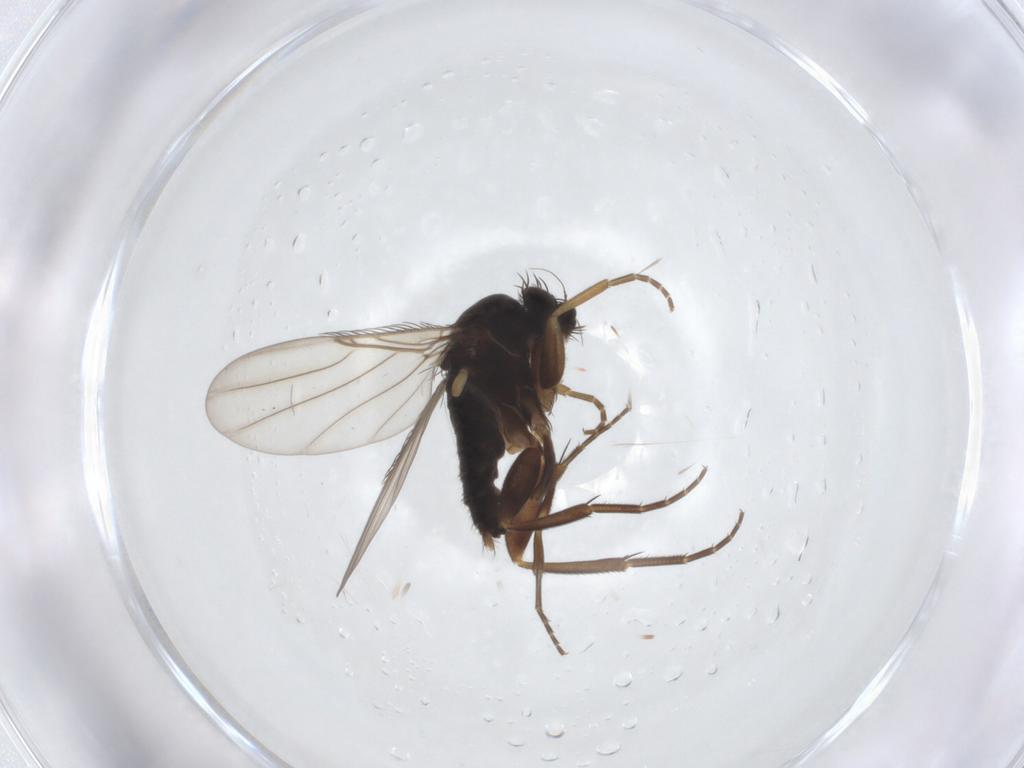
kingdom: Animalia
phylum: Arthropoda
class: Insecta
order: Diptera
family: Phoridae
